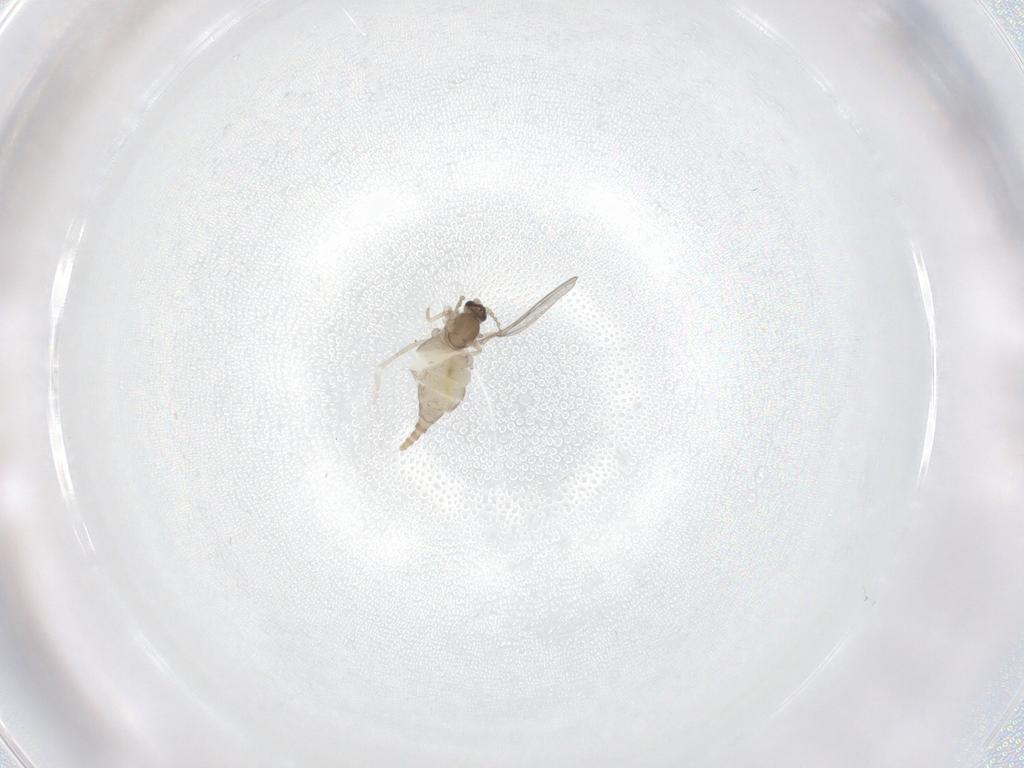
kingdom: Animalia
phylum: Arthropoda
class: Insecta
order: Diptera
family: Cecidomyiidae
